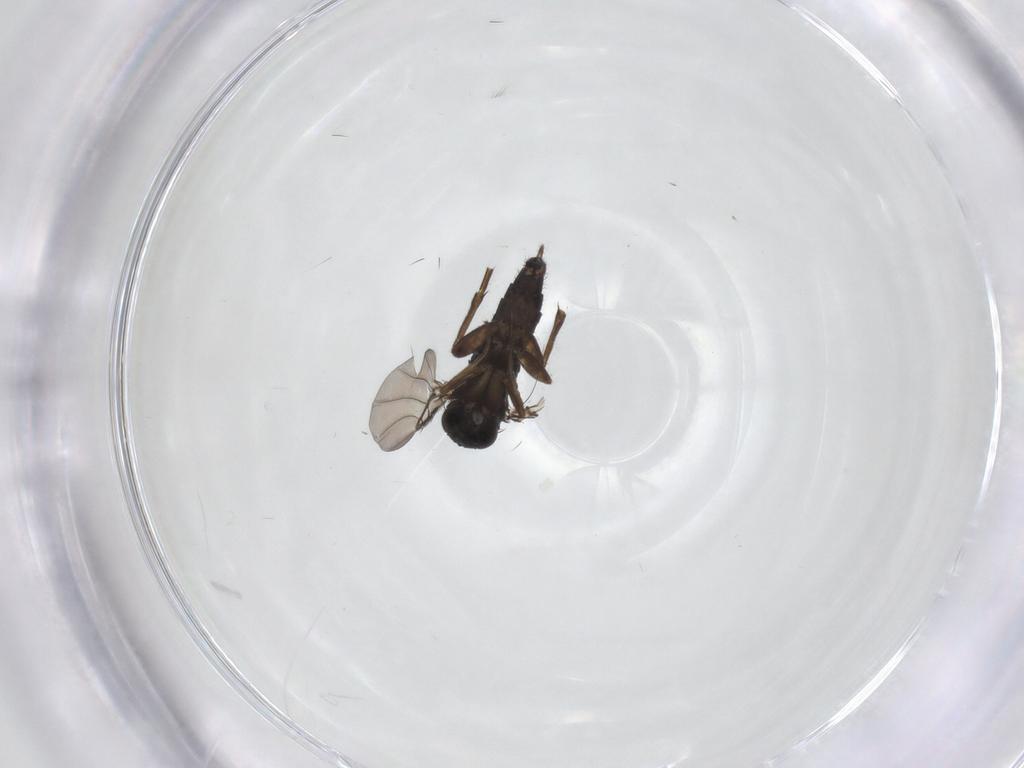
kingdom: Animalia
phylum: Arthropoda
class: Insecta
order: Diptera
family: Phoridae
